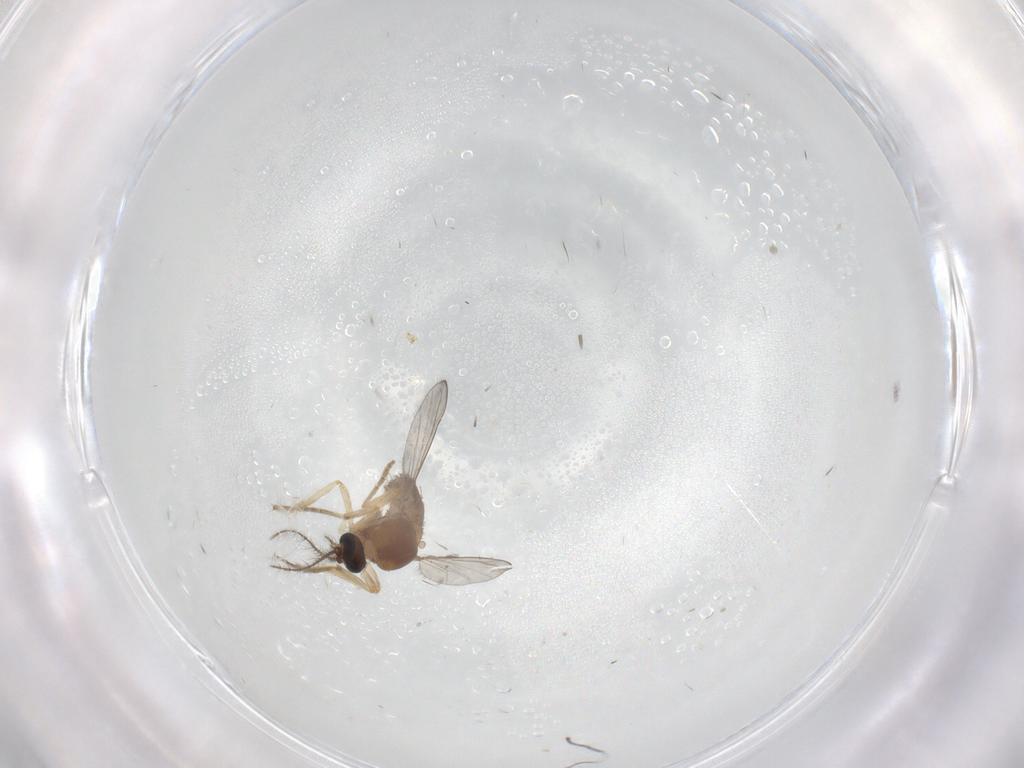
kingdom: Animalia
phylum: Arthropoda
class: Insecta
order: Diptera
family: Ceratopogonidae
